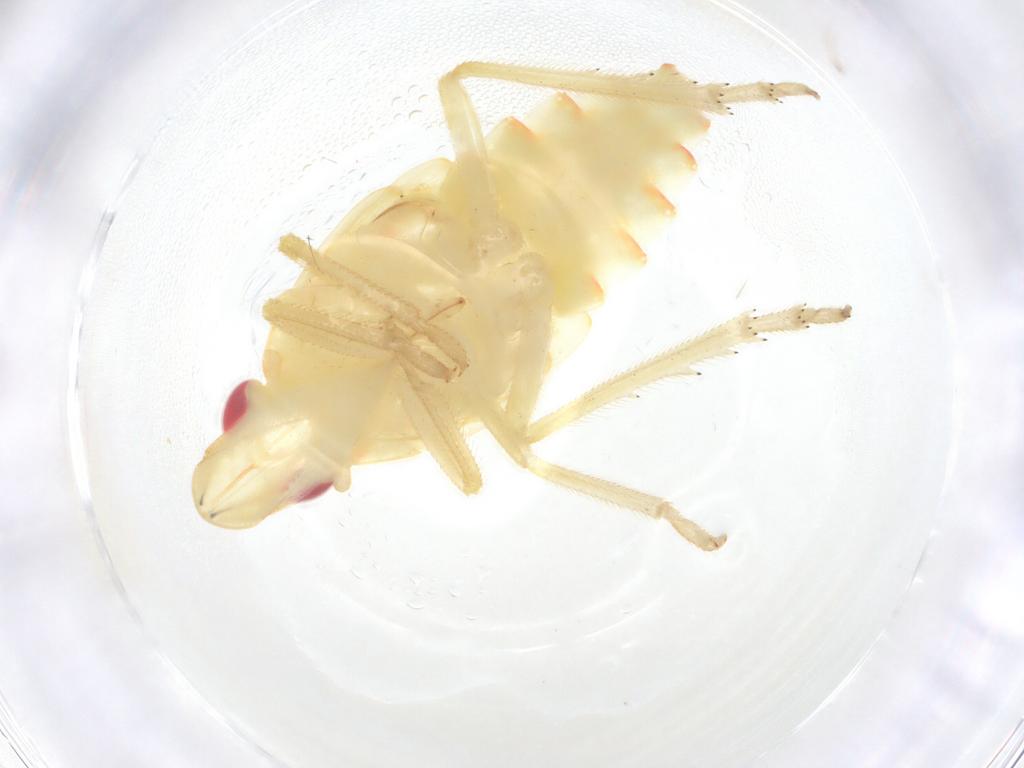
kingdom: Animalia
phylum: Arthropoda
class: Insecta
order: Hemiptera
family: Tropiduchidae
